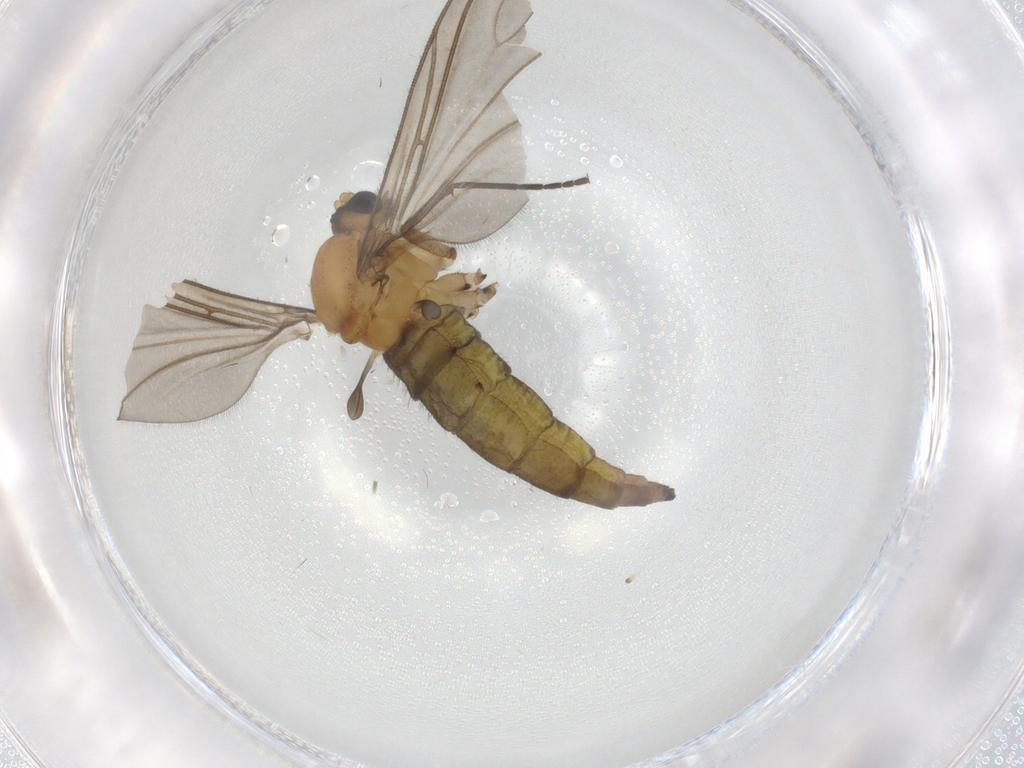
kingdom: Animalia
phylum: Arthropoda
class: Insecta
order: Diptera
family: Sciaridae
